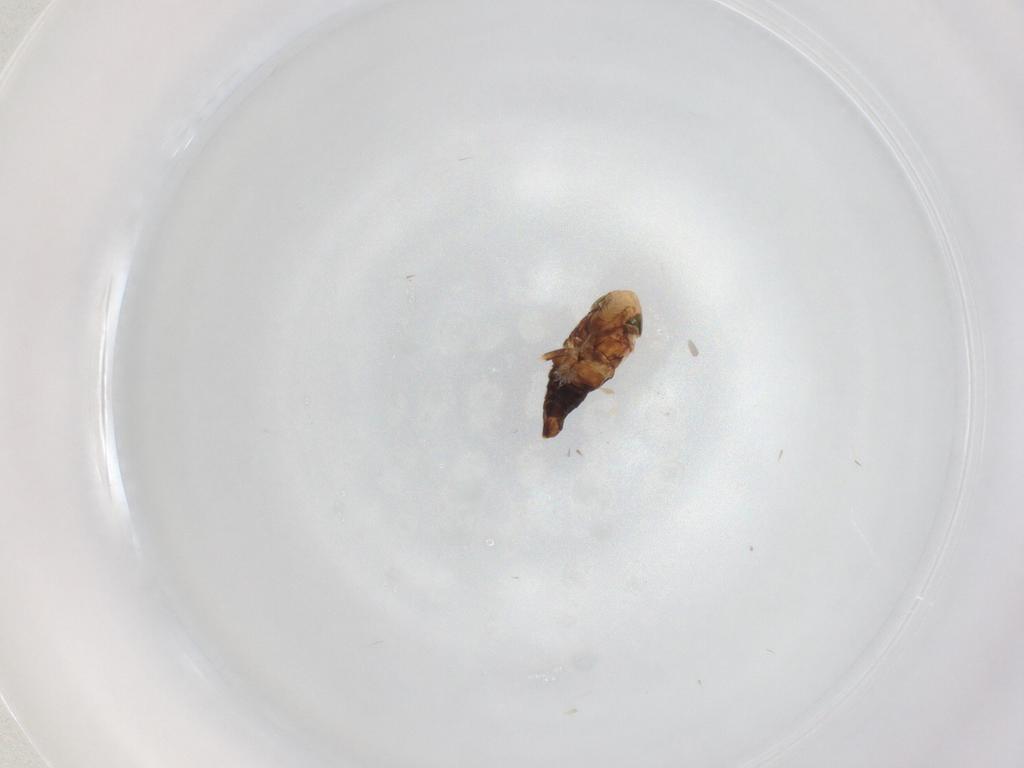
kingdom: Animalia
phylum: Arthropoda
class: Insecta
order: Hemiptera
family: Cicadellidae
